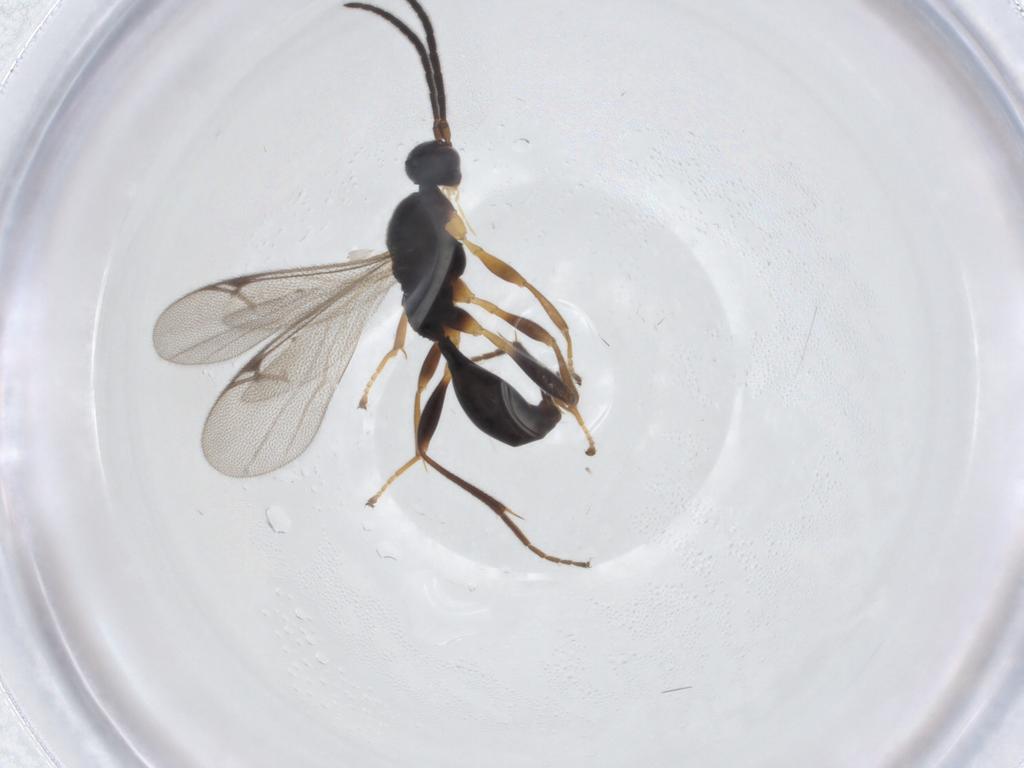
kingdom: Animalia
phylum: Arthropoda
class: Insecta
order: Hymenoptera
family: Proctotrupidae
